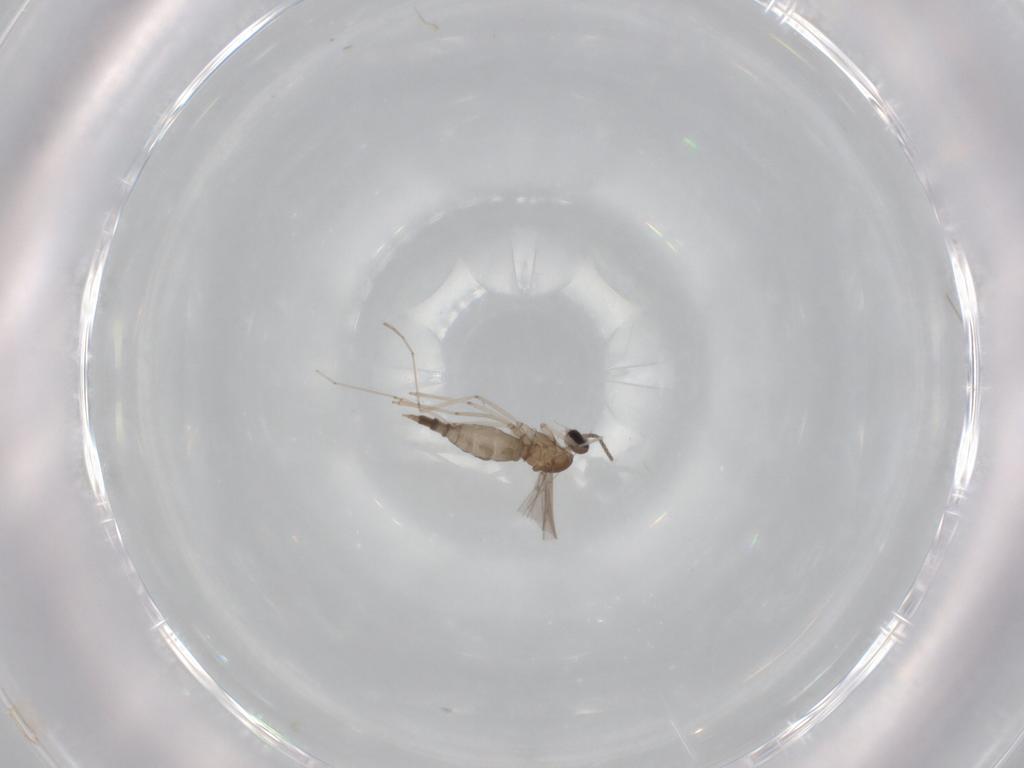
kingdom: Animalia
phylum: Arthropoda
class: Insecta
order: Diptera
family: Cecidomyiidae
